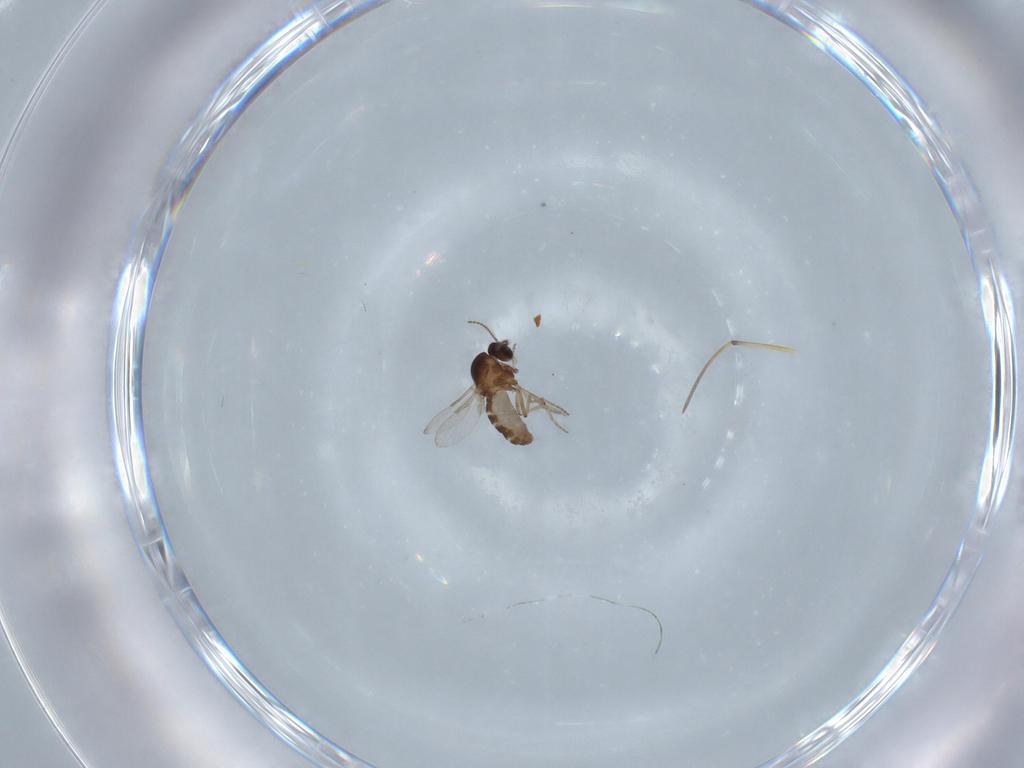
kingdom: Animalia
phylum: Arthropoda
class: Insecta
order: Diptera
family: Ceratopogonidae
